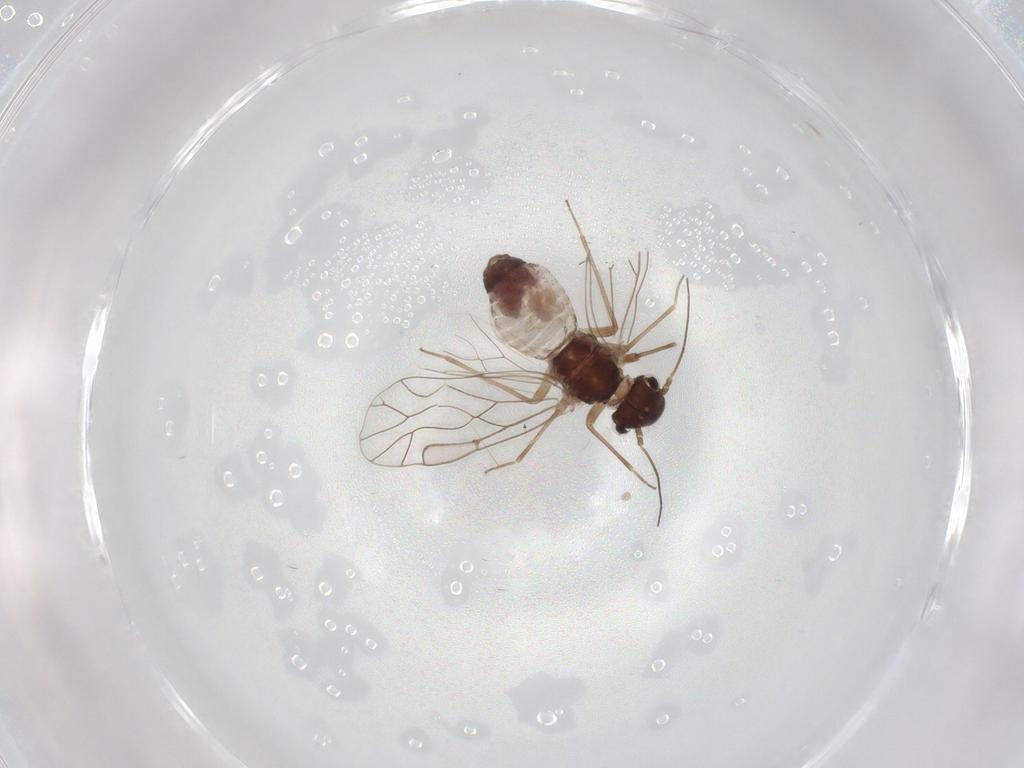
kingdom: Animalia
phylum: Arthropoda
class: Insecta
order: Psocodea
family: Lachesillidae
